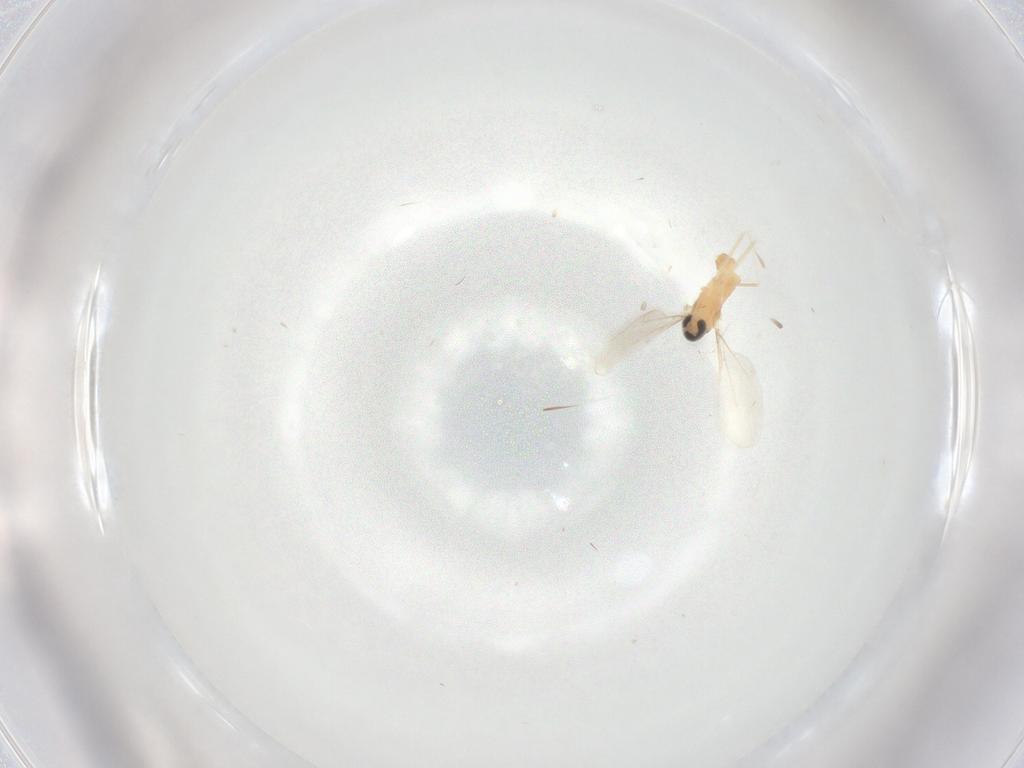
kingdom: Animalia
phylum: Arthropoda
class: Insecta
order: Diptera
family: Cecidomyiidae
